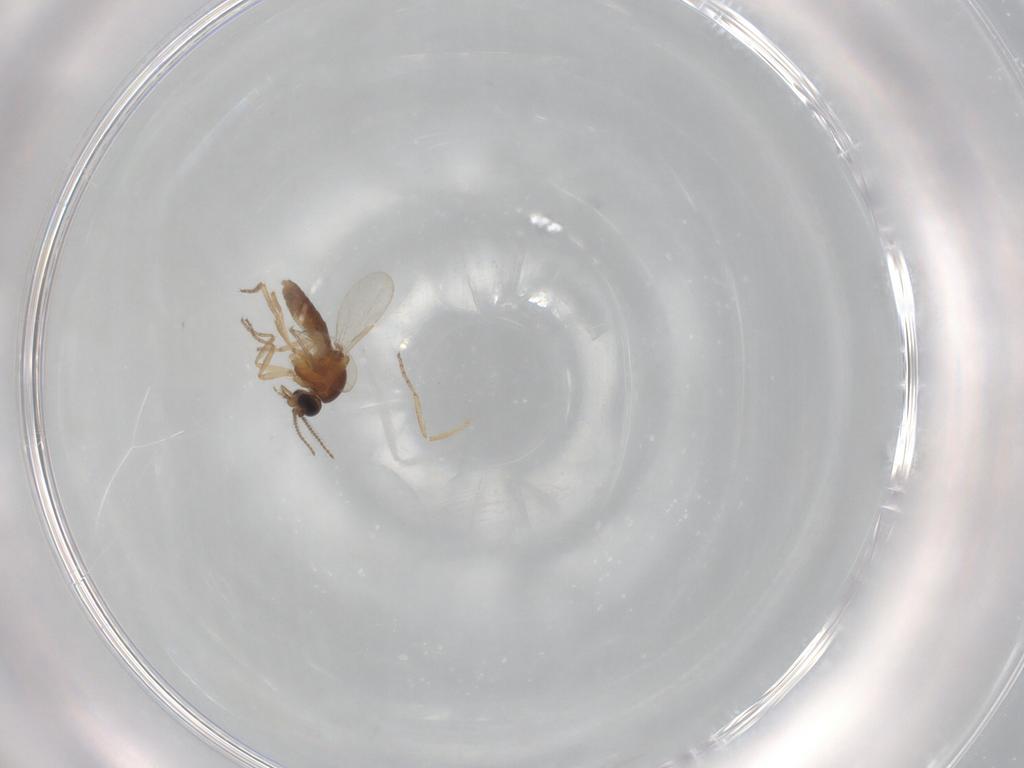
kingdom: Animalia
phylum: Arthropoda
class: Insecta
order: Diptera
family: Ceratopogonidae
